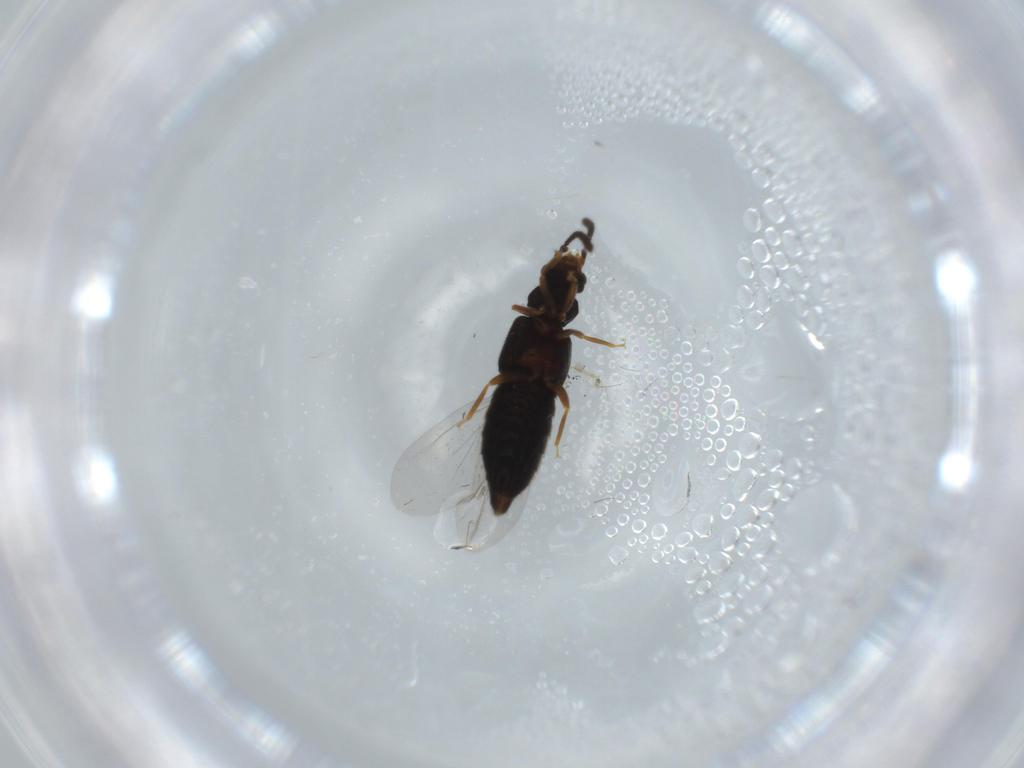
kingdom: Animalia
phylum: Arthropoda
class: Insecta
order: Coleoptera
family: Staphylinidae
